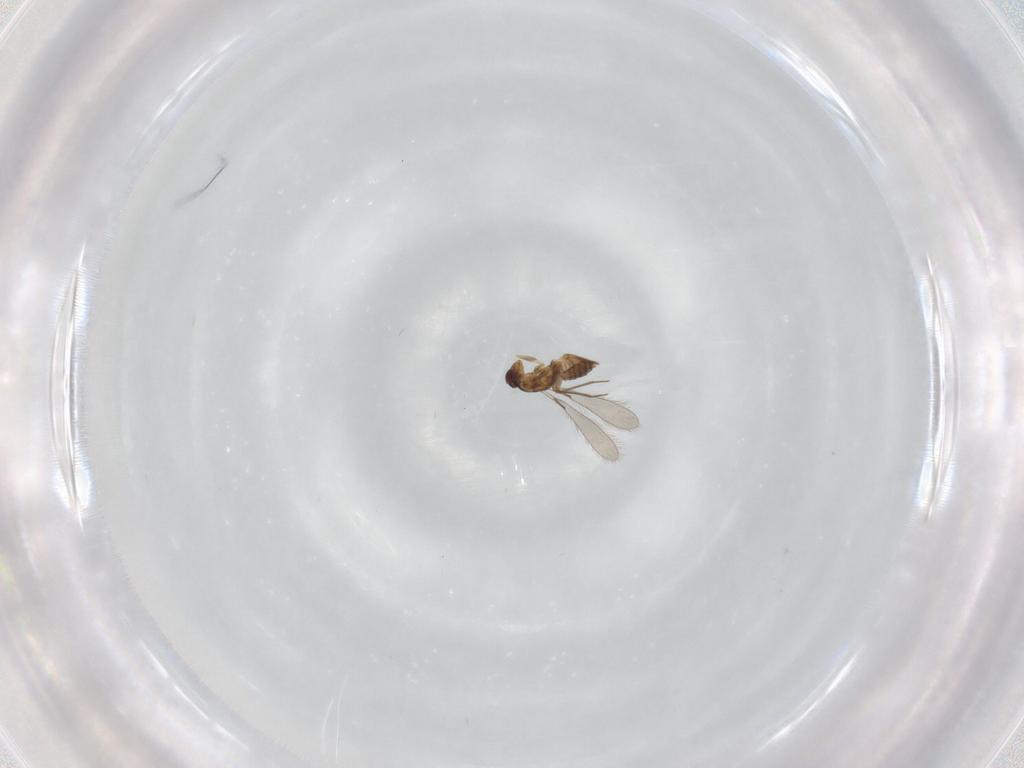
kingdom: Animalia
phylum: Arthropoda
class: Insecta
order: Hymenoptera
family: Mymaridae
